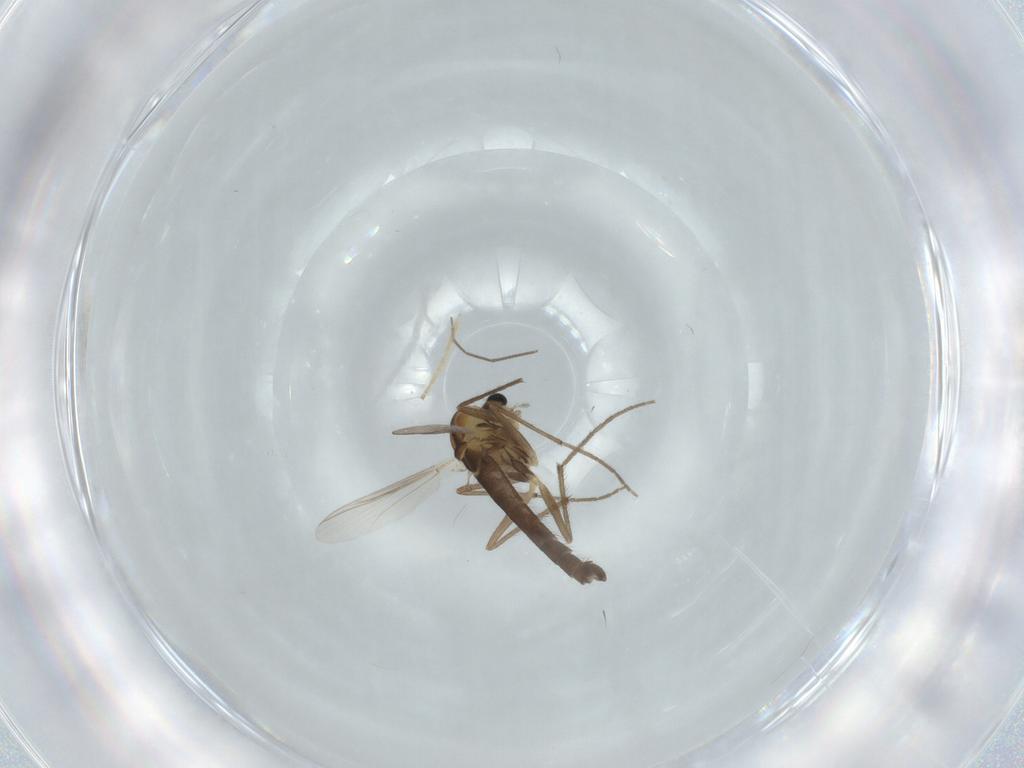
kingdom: Animalia
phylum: Arthropoda
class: Insecta
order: Diptera
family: Chironomidae
